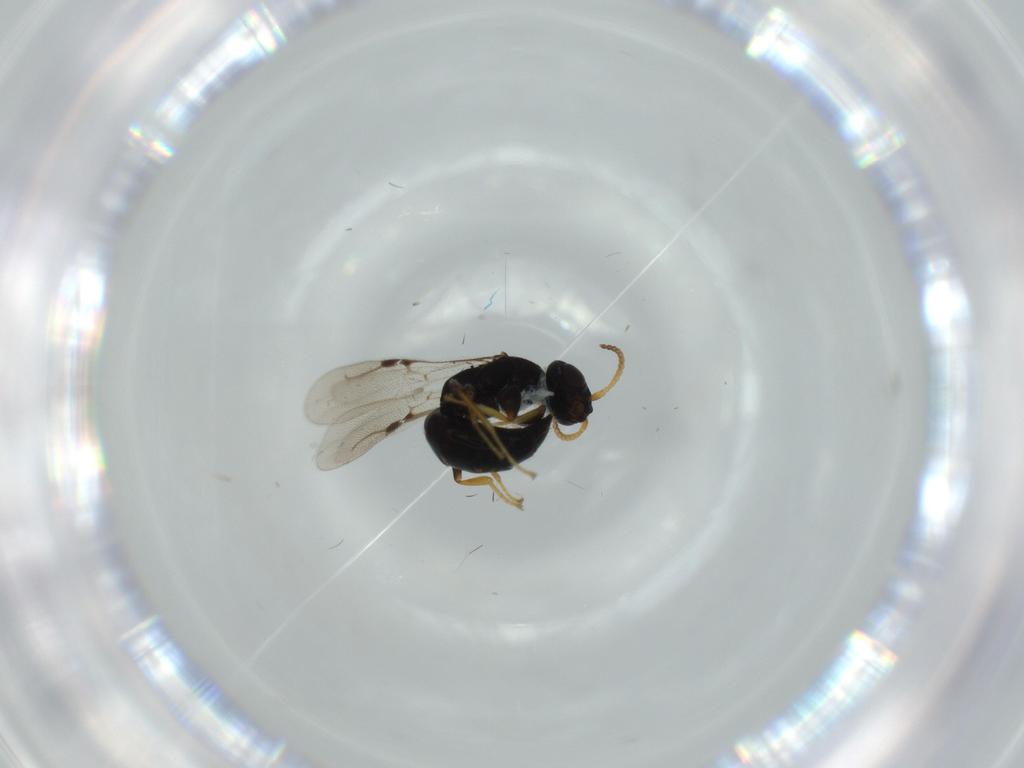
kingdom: Animalia
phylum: Arthropoda
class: Insecta
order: Hymenoptera
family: Bethylidae
